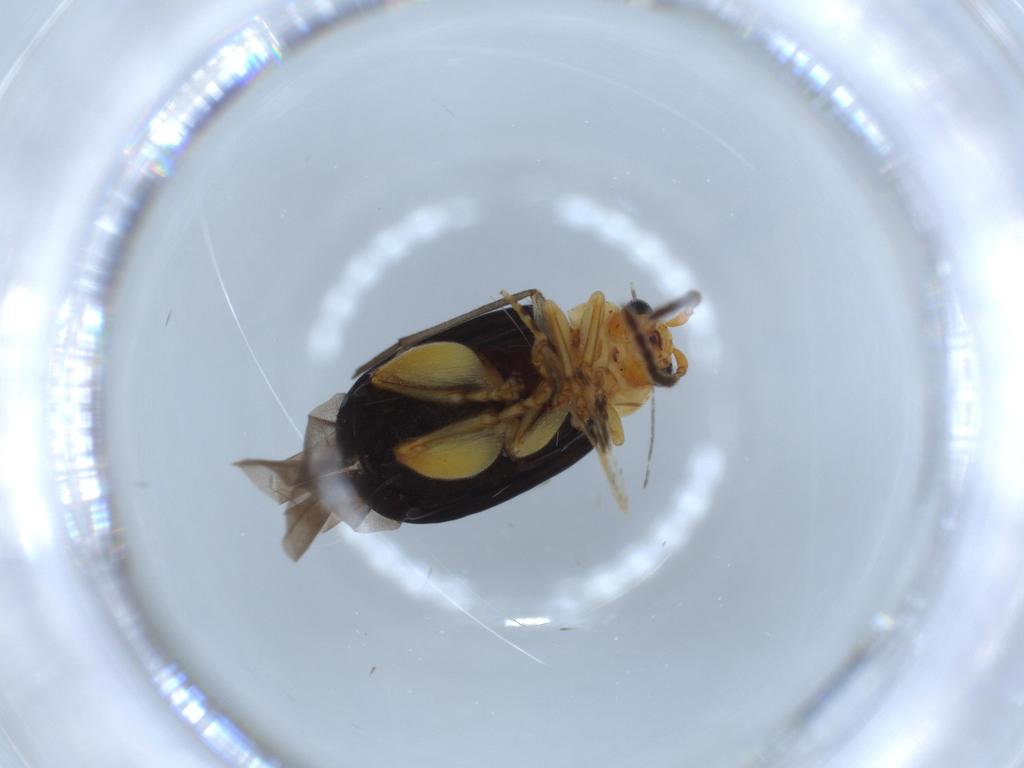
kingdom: Animalia
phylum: Arthropoda
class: Insecta
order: Coleoptera
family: Chrysomelidae
